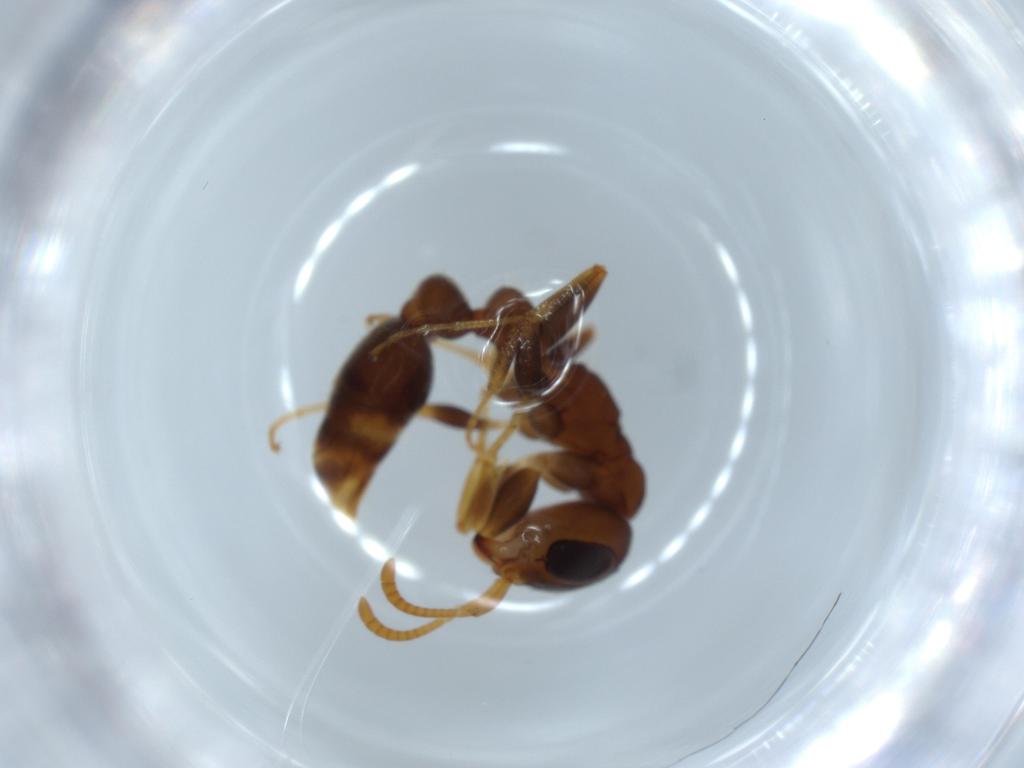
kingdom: Animalia
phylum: Arthropoda
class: Insecta
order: Hymenoptera
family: Formicidae
